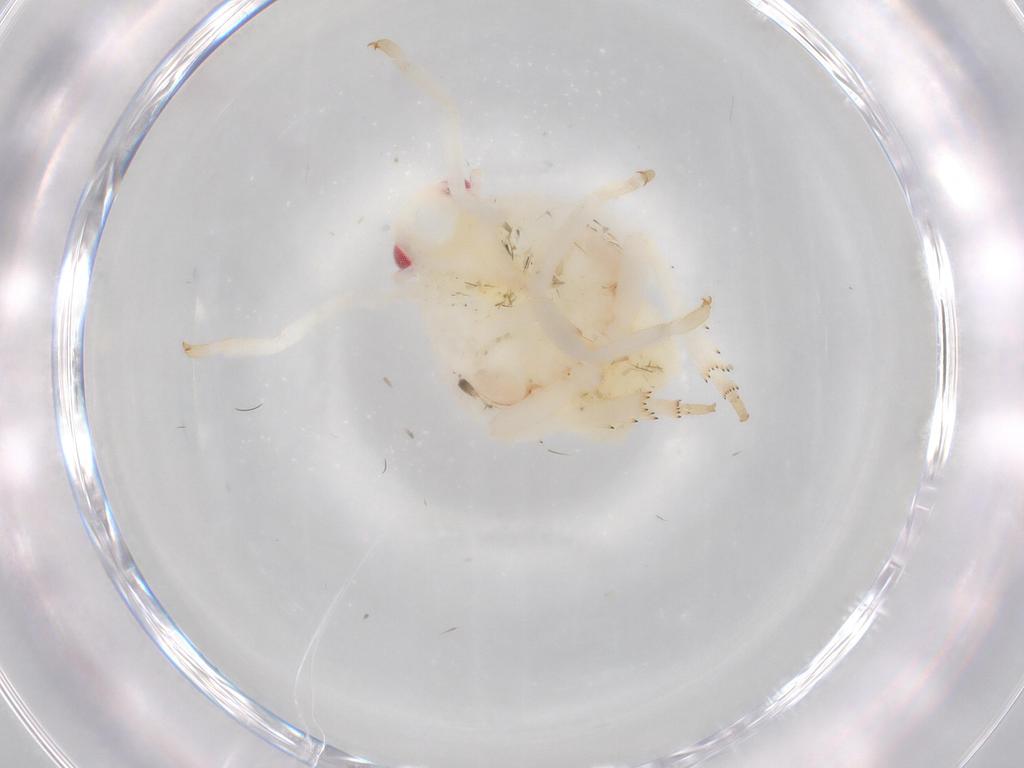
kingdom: Animalia
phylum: Arthropoda
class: Insecta
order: Hemiptera
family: Flatidae
